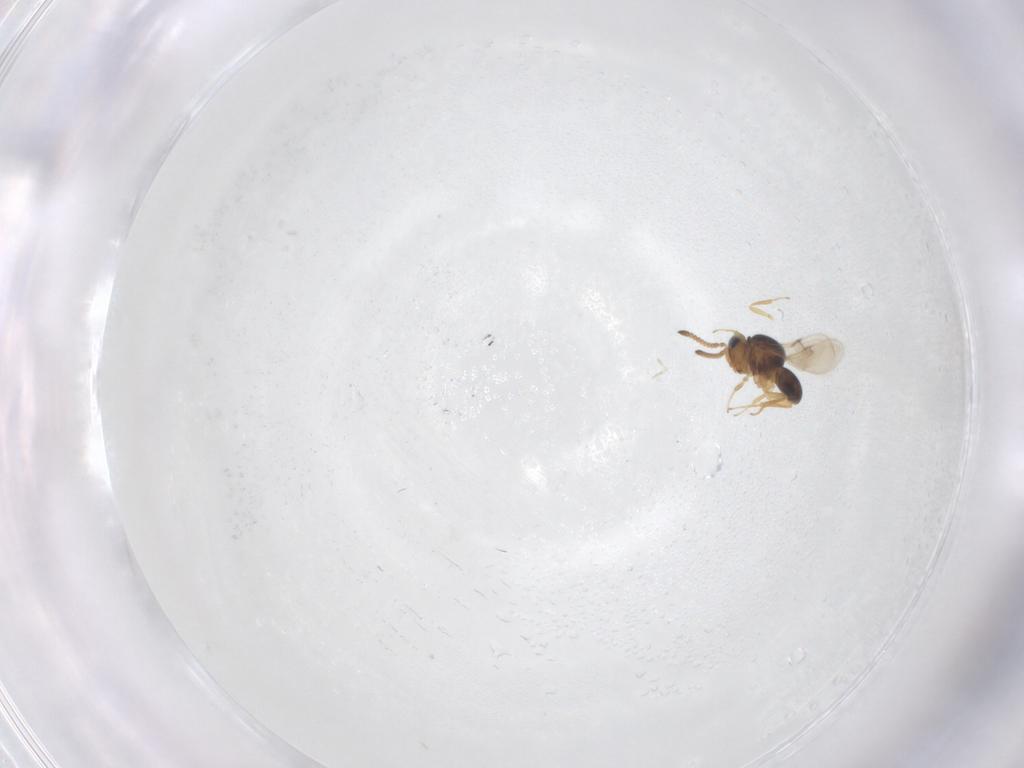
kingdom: Animalia
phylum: Arthropoda
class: Insecta
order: Hymenoptera
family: Scelionidae
